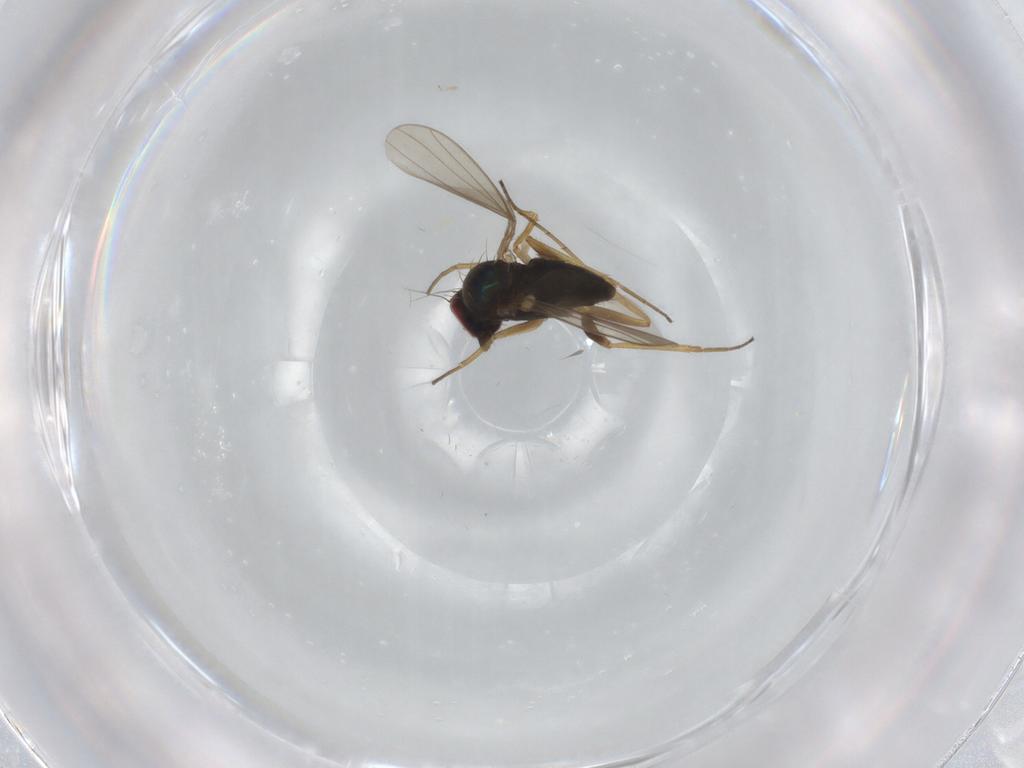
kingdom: Animalia
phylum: Arthropoda
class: Insecta
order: Diptera
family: Dolichopodidae
